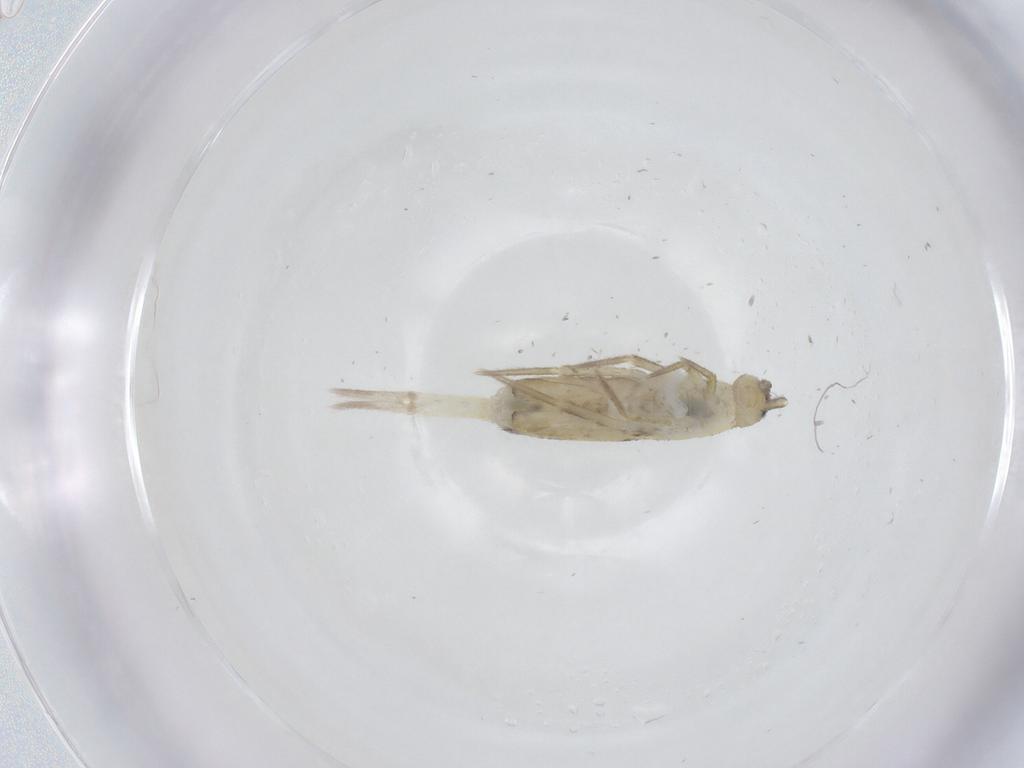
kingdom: Animalia
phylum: Arthropoda
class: Collembola
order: Entomobryomorpha
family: Entomobryidae
